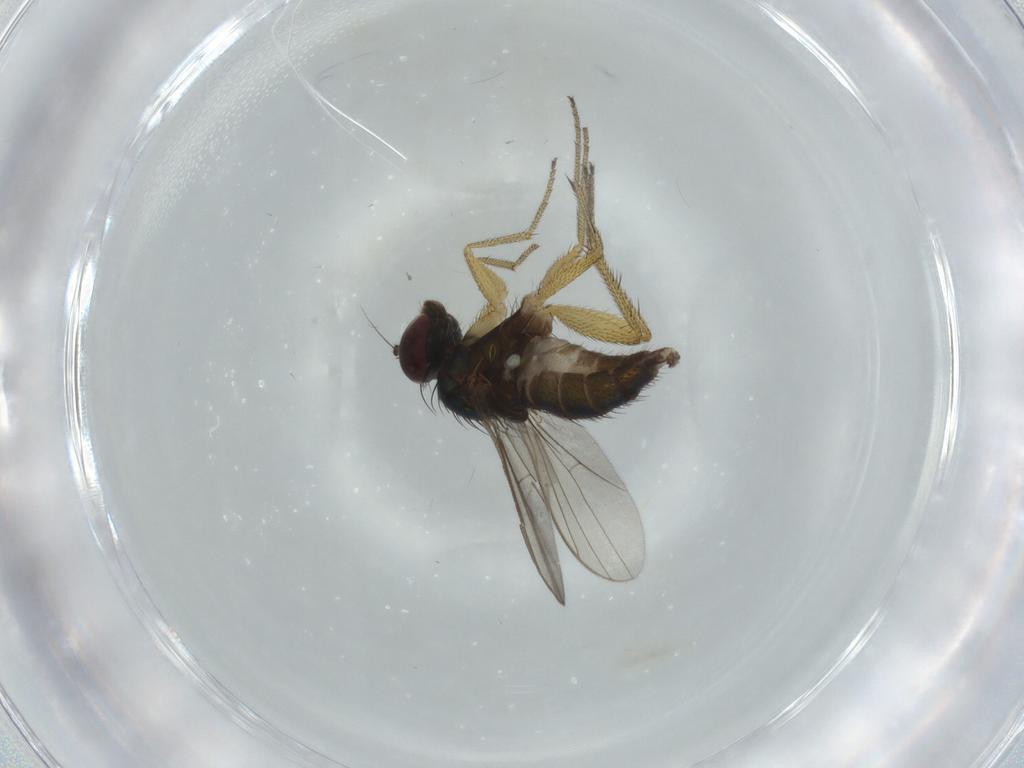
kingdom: Animalia
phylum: Arthropoda
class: Insecta
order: Diptera
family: Dolichopodidae
